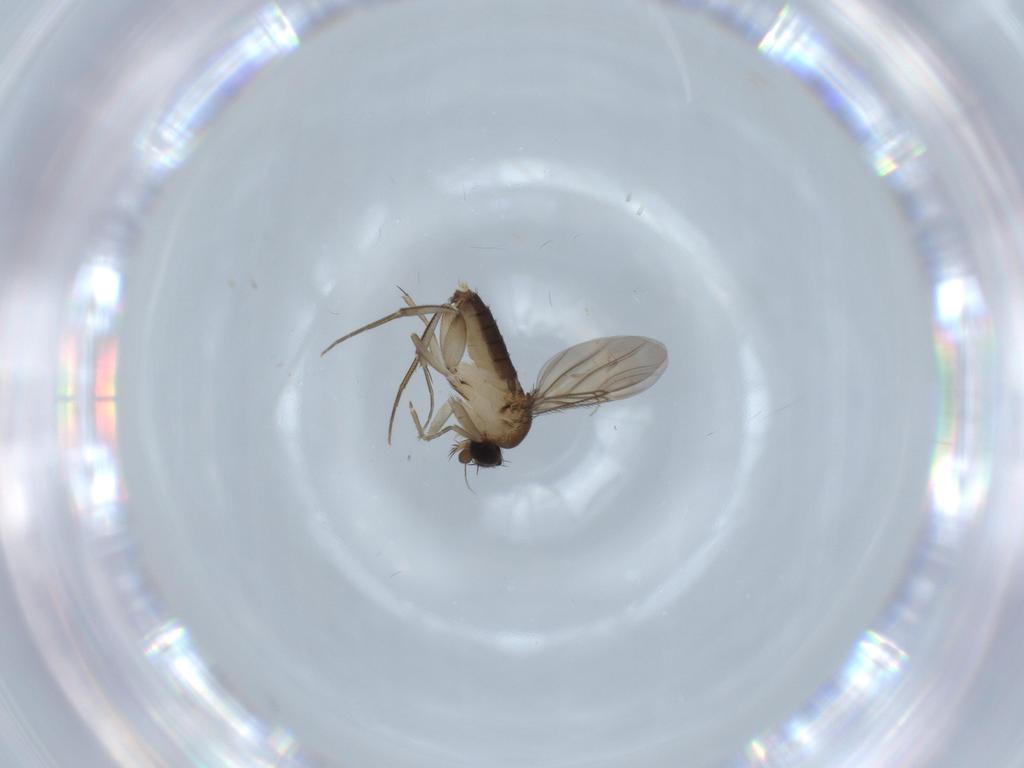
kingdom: Animalia
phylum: Arthropoda
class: Insecta
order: Diptera
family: Phoridae
